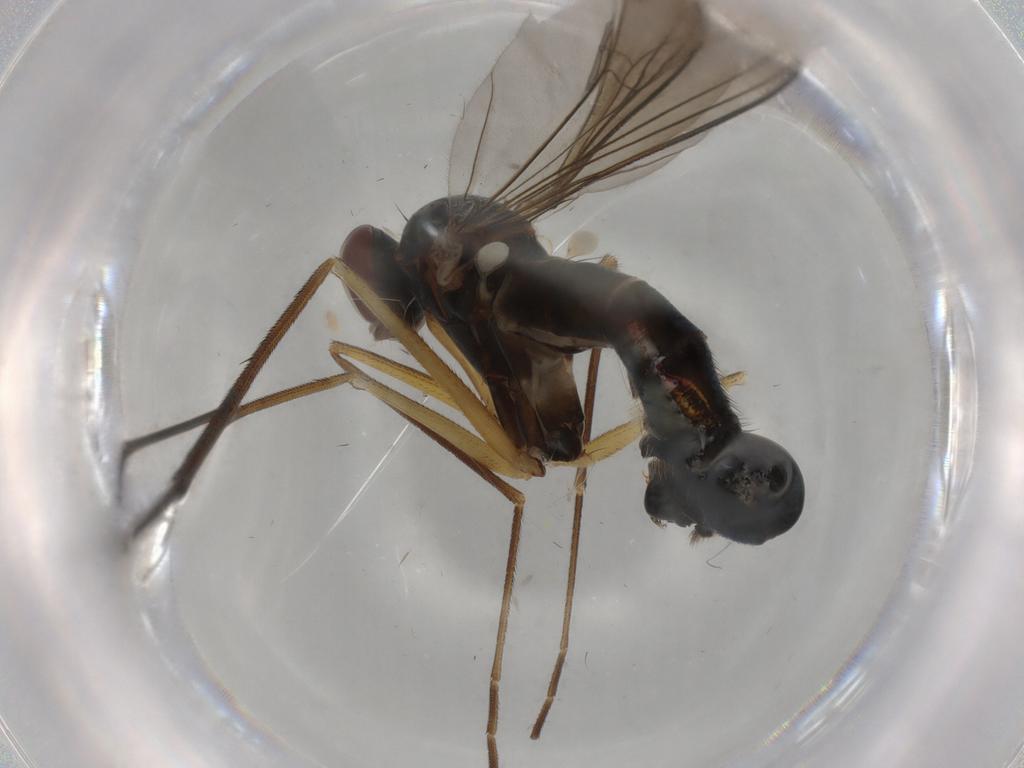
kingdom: Animalia
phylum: Arthropoda
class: Insecta
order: Diptera
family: Dolichopodidae
